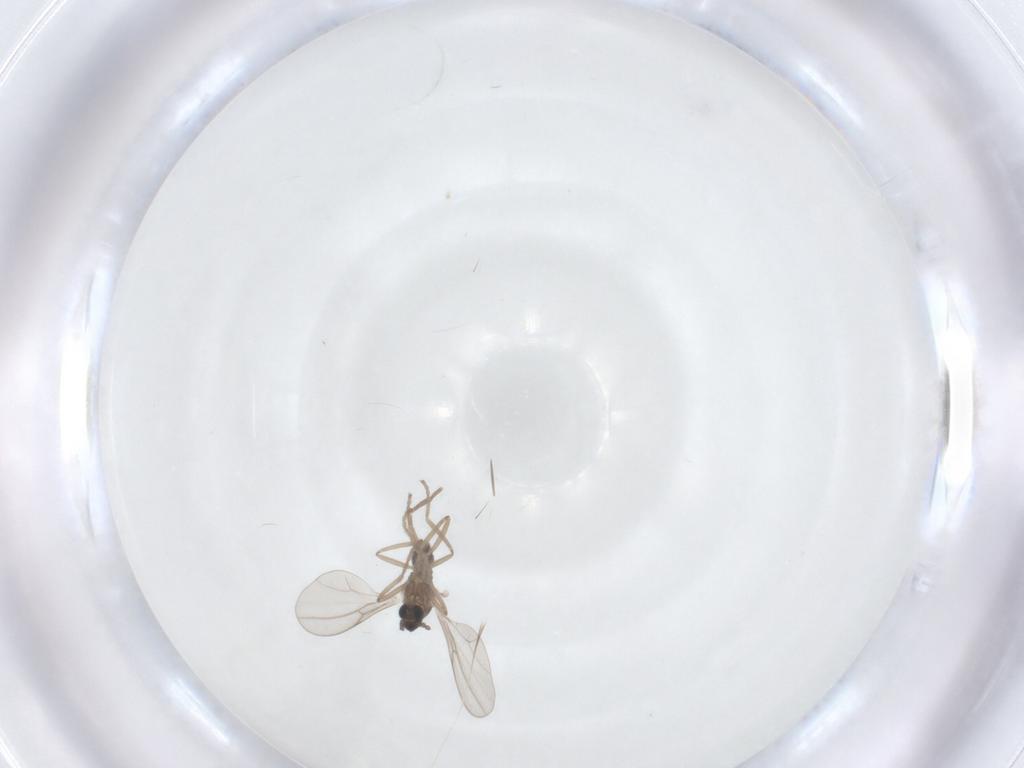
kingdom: Animalia
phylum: Arthropoda
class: Insecta
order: Diptera
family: Cecidomyiidae
